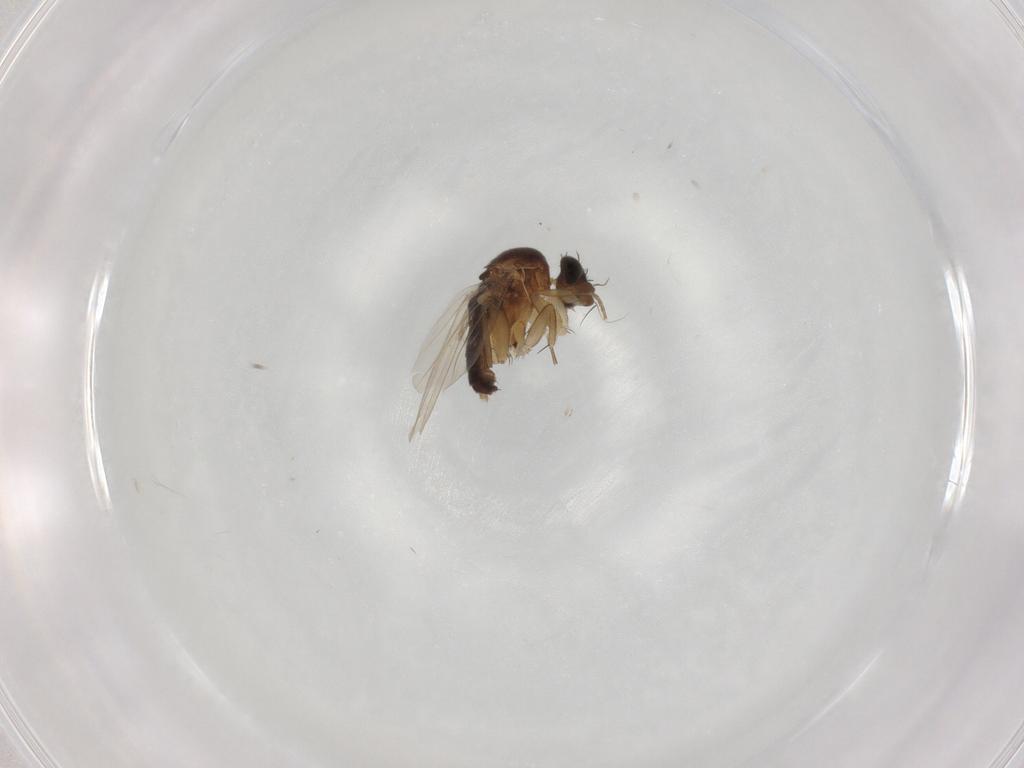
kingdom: Animalia
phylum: Arthropoda
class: Insecta
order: Diptera
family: Phoridae
